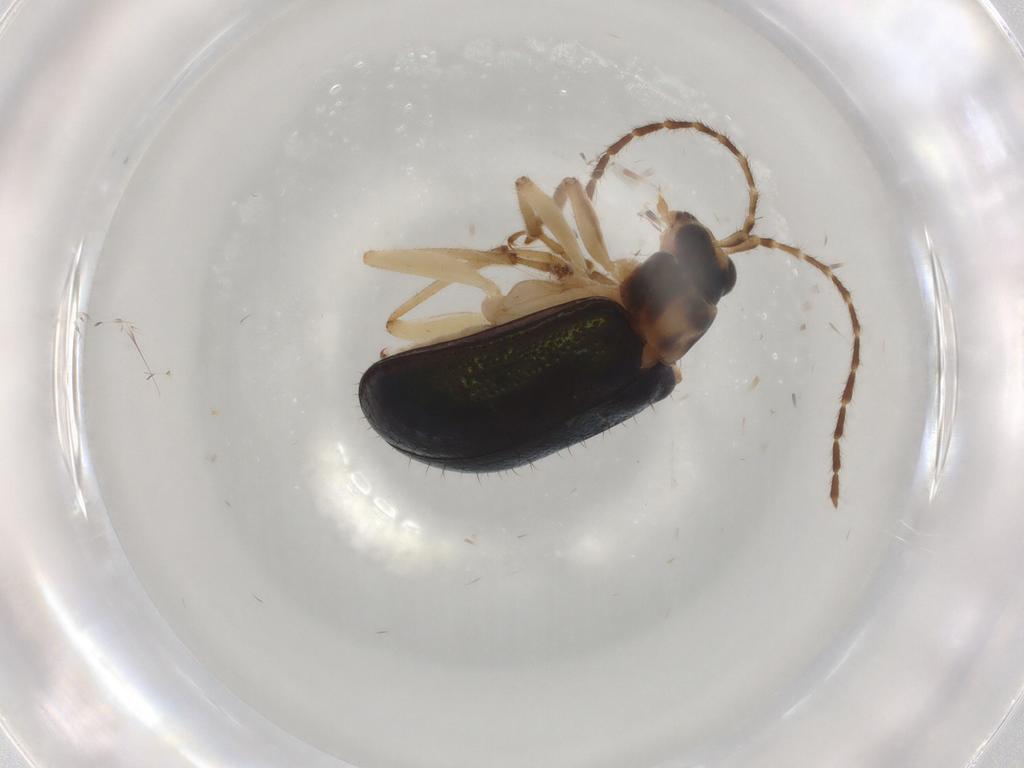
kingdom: Animalia
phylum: Arthropoda
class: Insecta
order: Coleoptera
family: Chrysomelidae
